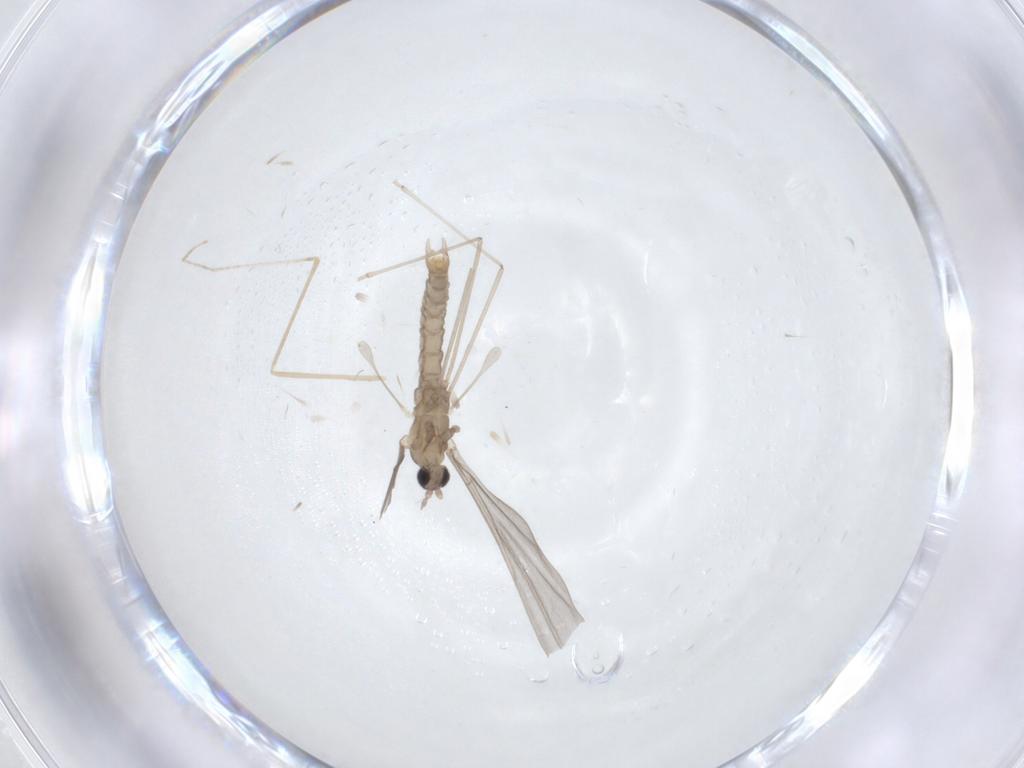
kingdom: Animalia
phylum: Arthropoda
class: Insecta
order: Diptera
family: Cecidomyiidae
